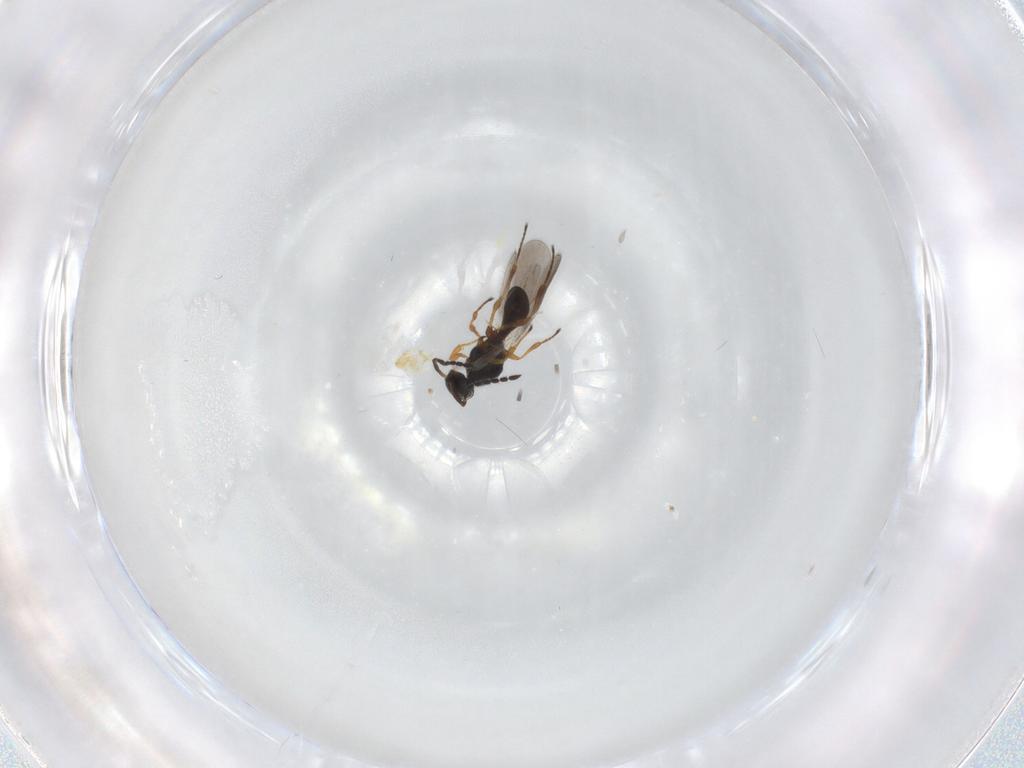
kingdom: Animalia
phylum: Arthropoda
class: Insecta
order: Hymenoptera
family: Platygastridae
